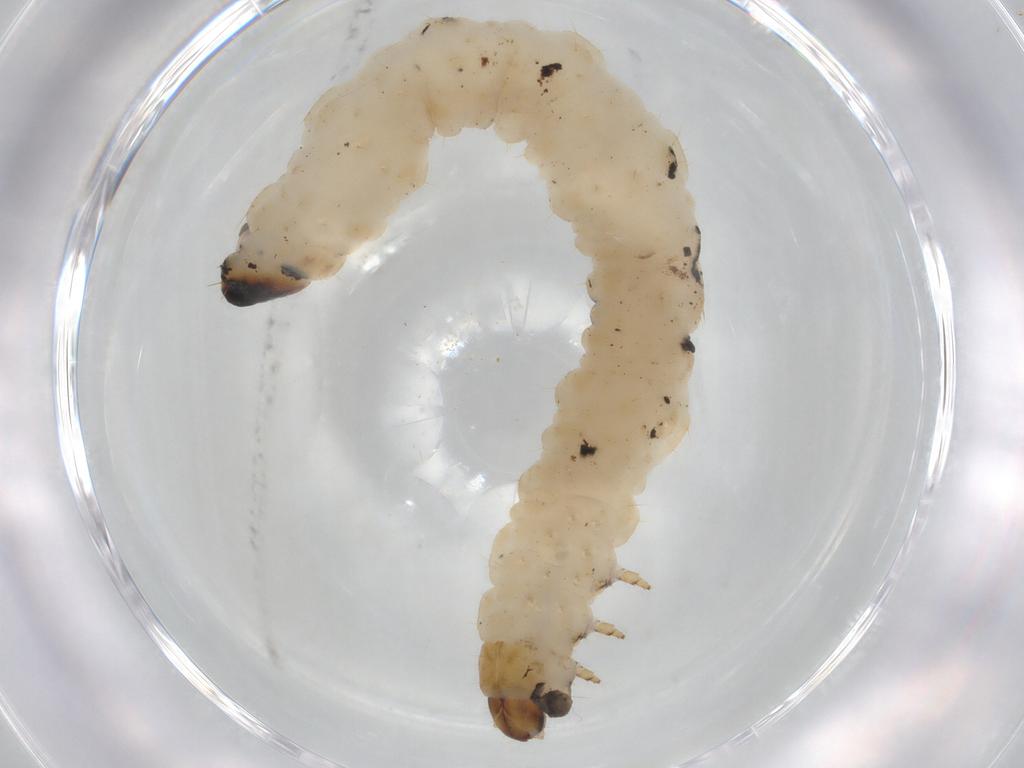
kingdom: Animalia
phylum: Arthropoda
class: Insecta
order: Coleoptera
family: Chrysomelidae
